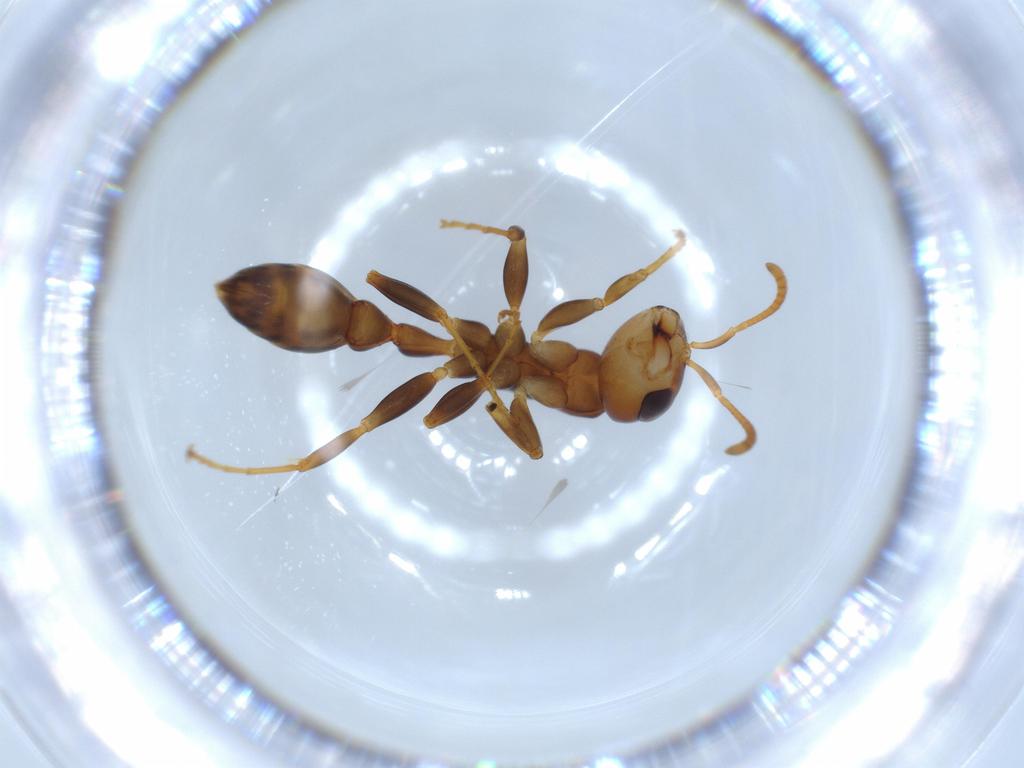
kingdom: Animalia
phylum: Arthropoda
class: Insecta
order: Hymenoptera
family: Formicidae
